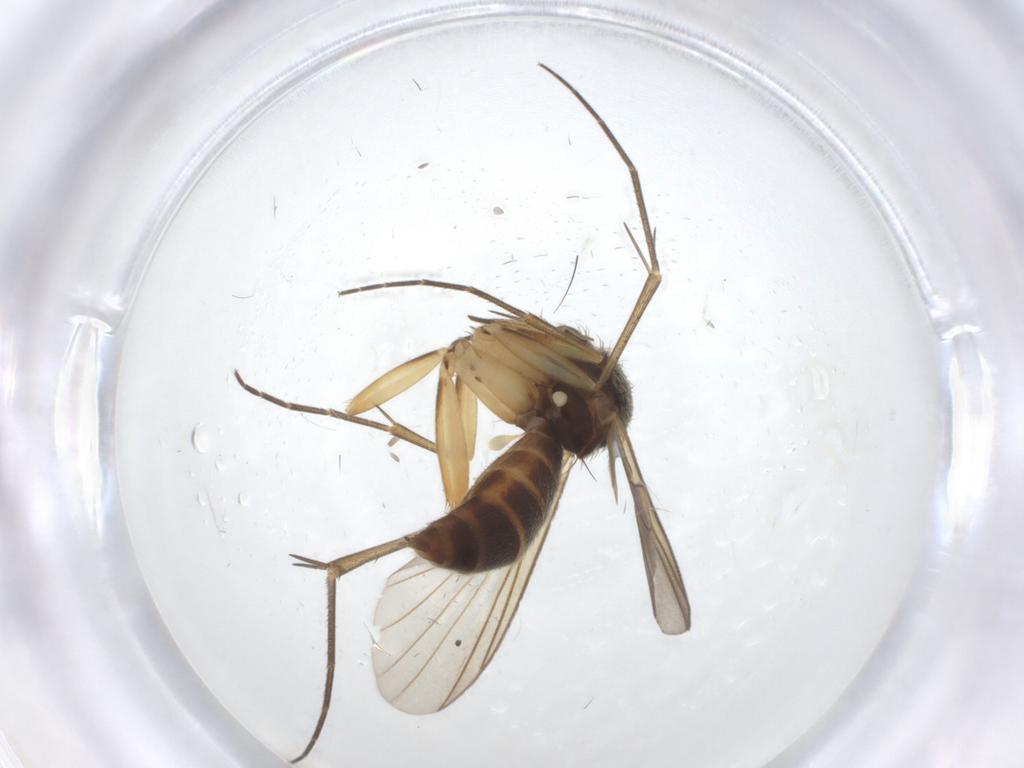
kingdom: Animalia
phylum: Arthropoda
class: Insecta
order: Diptera
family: Mycetophilidae
